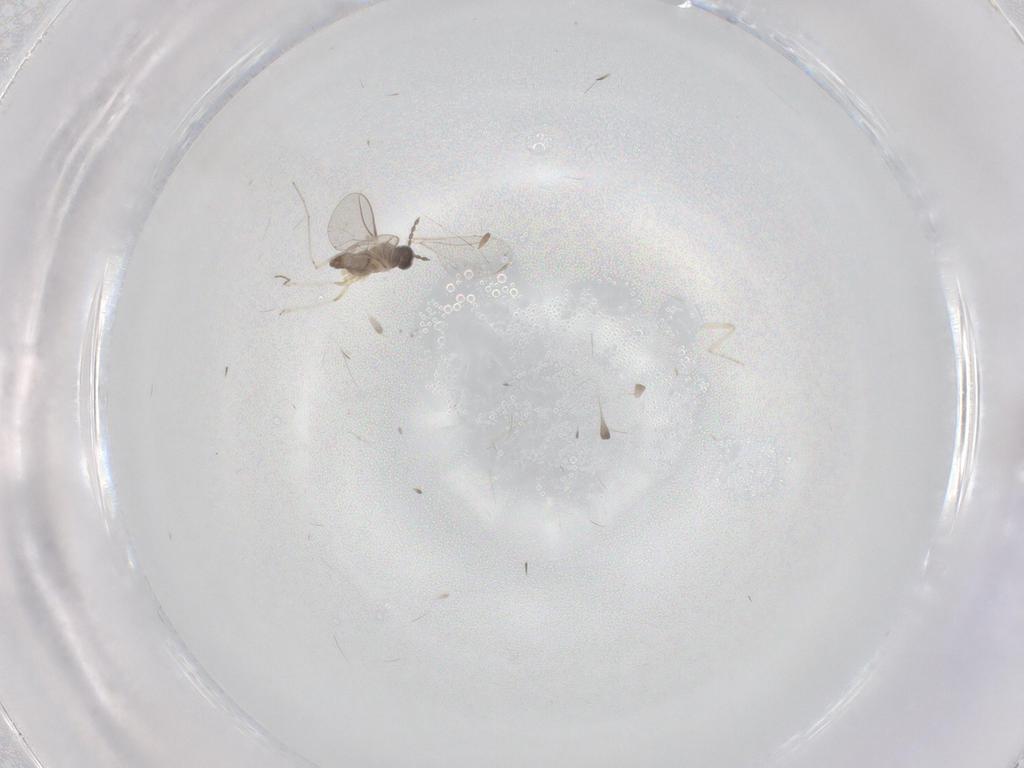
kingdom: Animalia
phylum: Arthropoda
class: Insecta
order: Diptera
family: Cecidomyiidae
